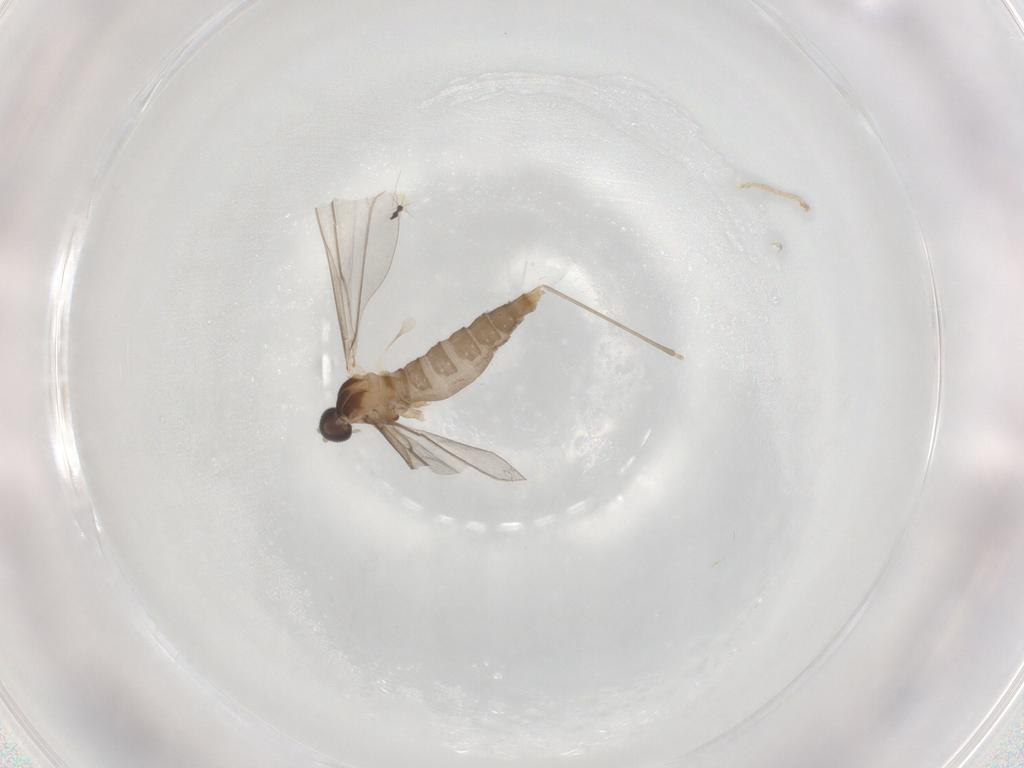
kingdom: Animalia
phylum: Arthropoda
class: Insecta
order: Diptera
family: Cecidomyiidae
